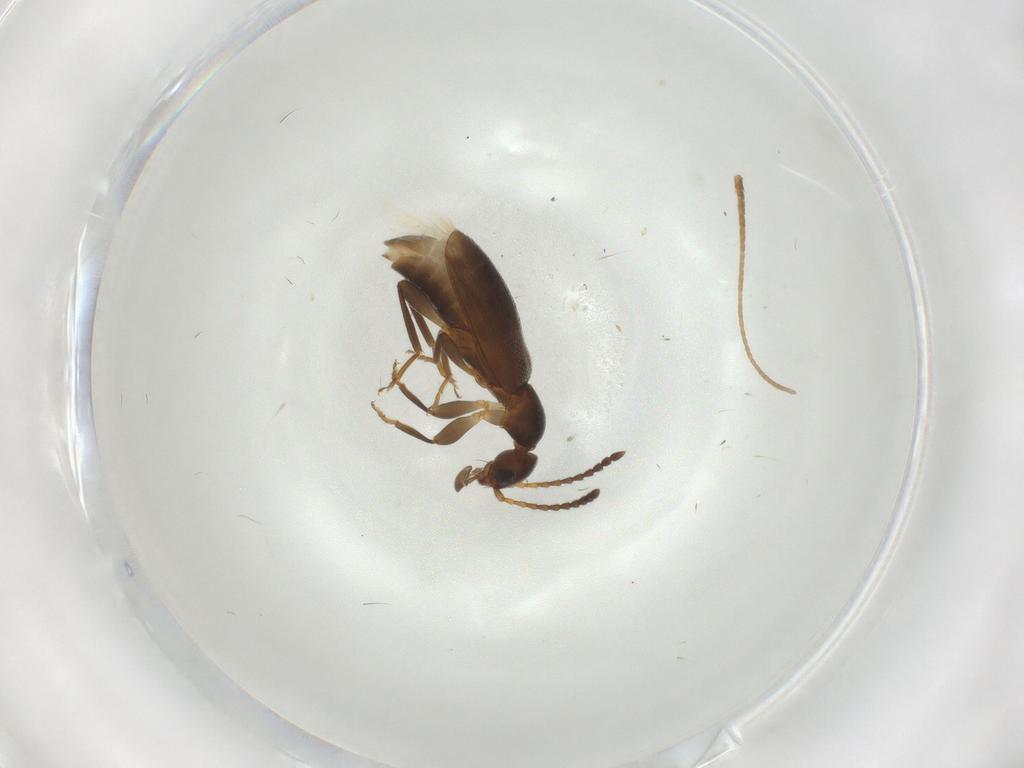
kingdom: Animalia
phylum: Arthropoda
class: Insecta
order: Coleoptera
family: Anthicidae
